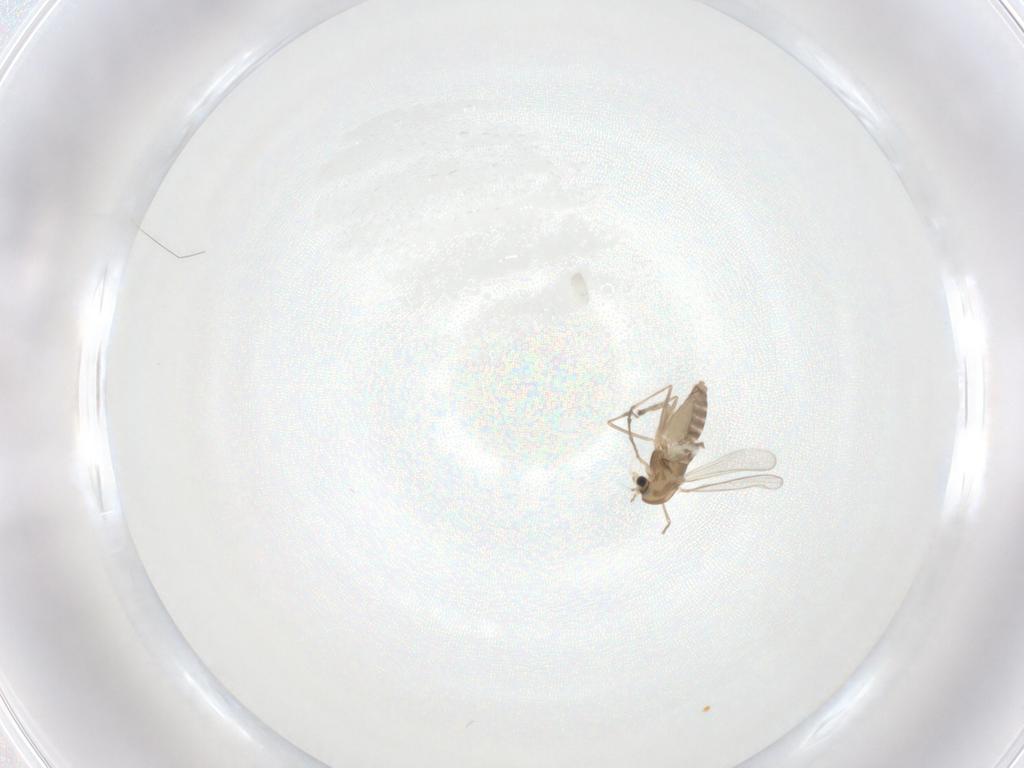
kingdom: Animalia
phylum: Arthropoda
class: Insecta
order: Diptera
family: Chironomidae
